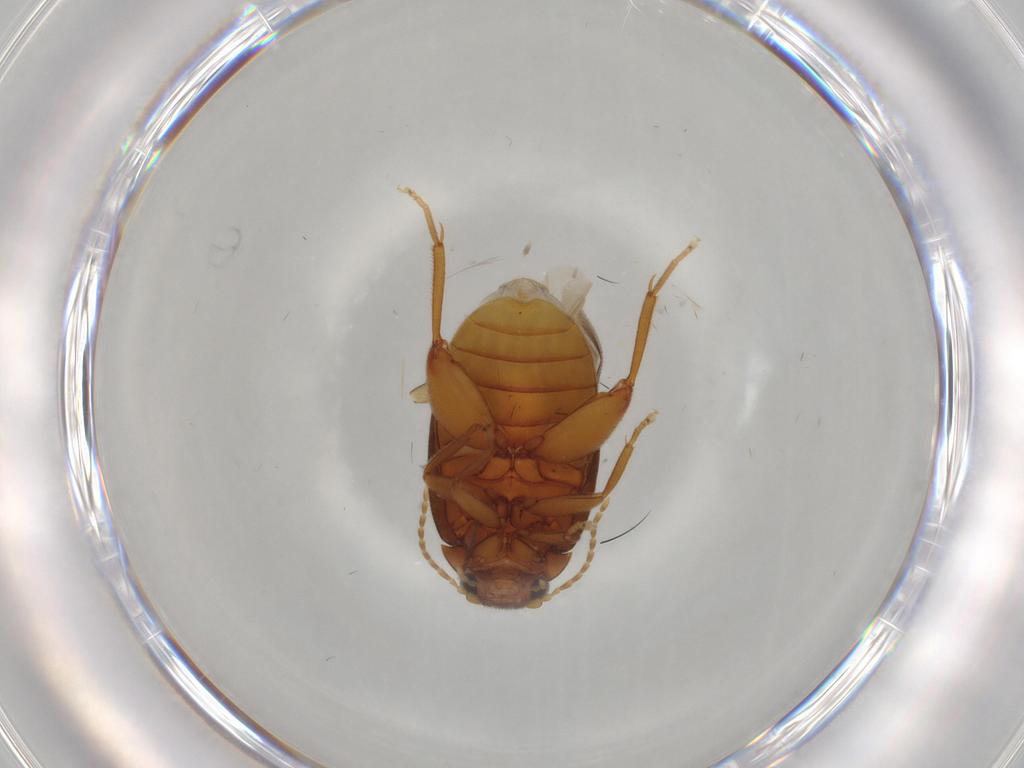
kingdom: Animalia
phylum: Arthropoda
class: Insecta
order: Coleoptera
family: Scirtidae
